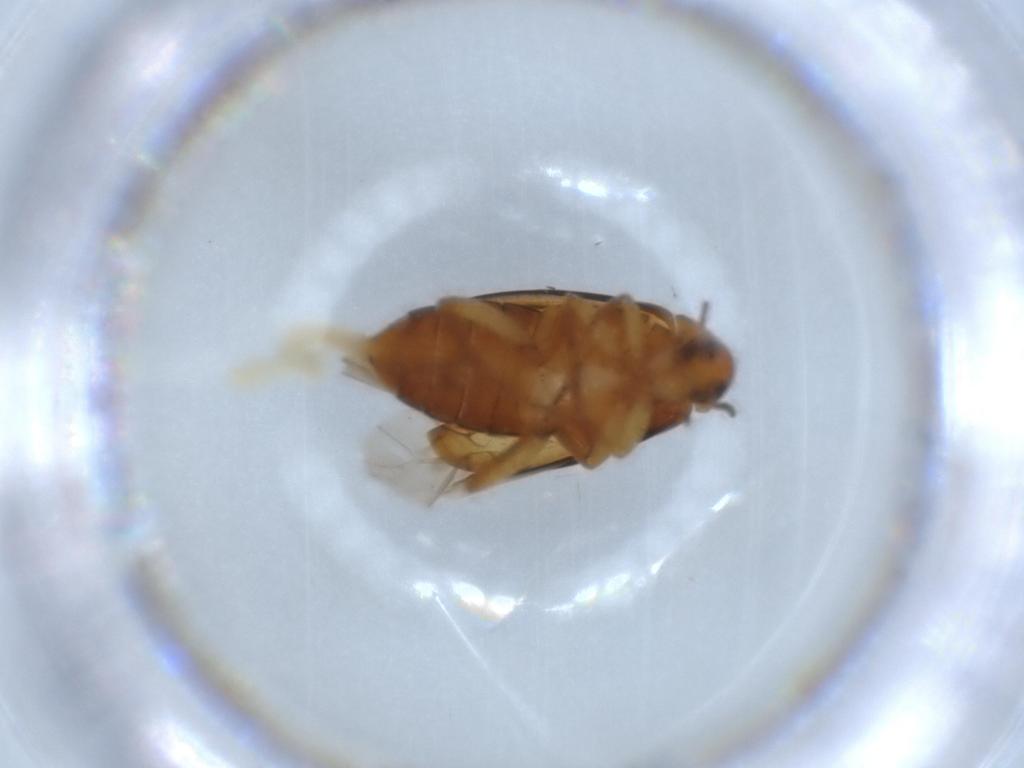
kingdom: Animalia
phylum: Arthropoda
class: Insecta
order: Coleoptera
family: Scraptiidae
